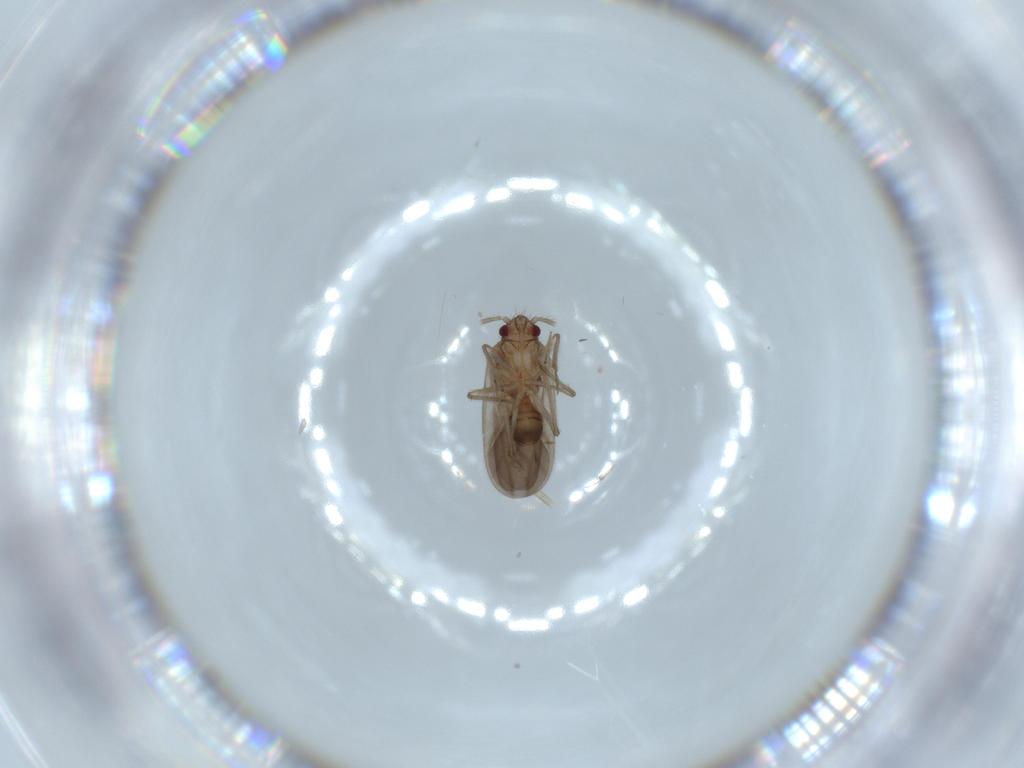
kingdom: Animalia
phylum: Arthropoda
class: Insecta
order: Hemiptera
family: Ceratocombidae
